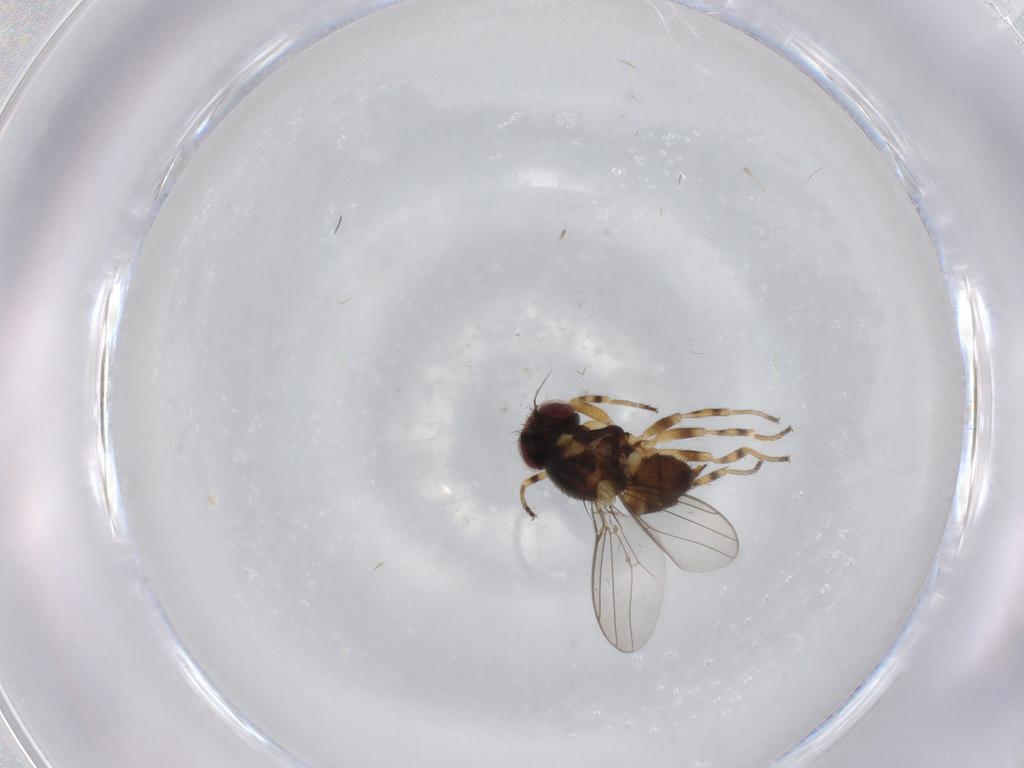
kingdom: Animalia
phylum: Arthropoda
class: Insecta
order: Diptera
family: Chloropidae
